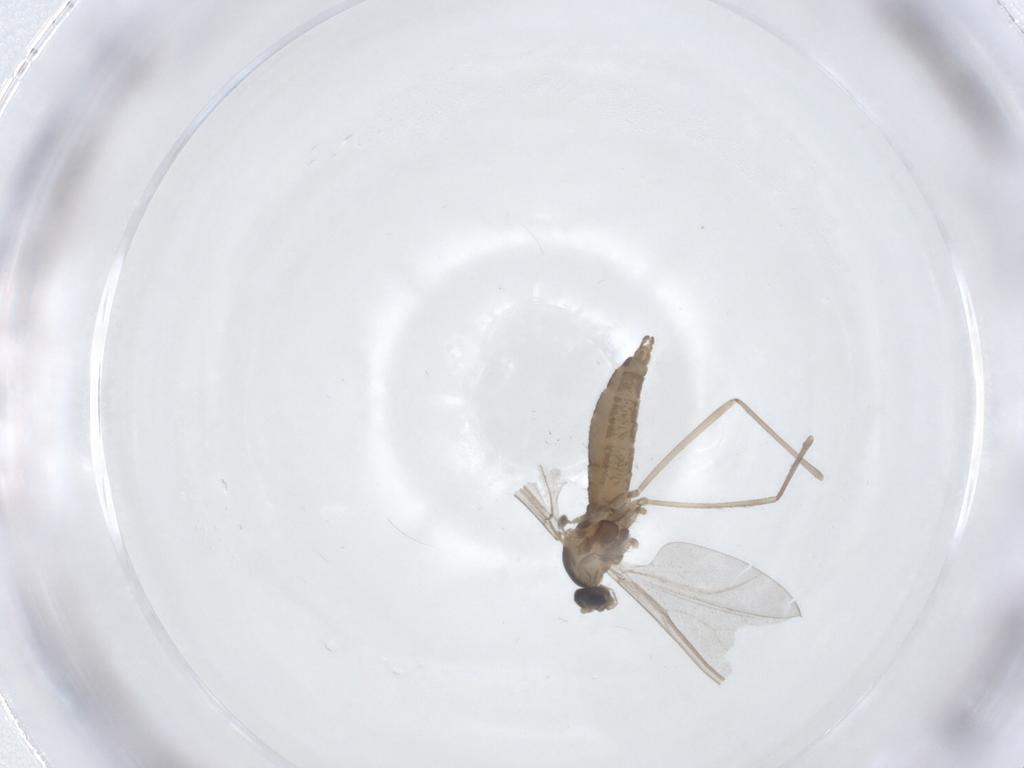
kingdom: Animalia
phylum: Arthropoda
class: Insecta
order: Diptera
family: Cecidomyiidae
